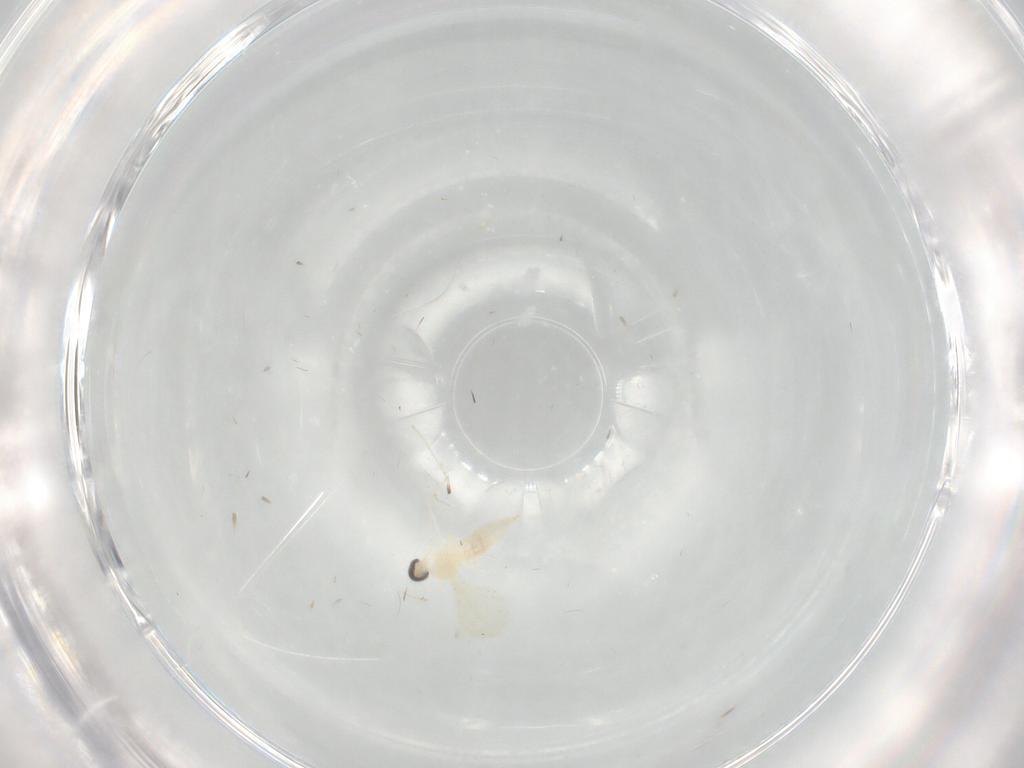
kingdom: Animalia
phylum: Arthropoda
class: Insecta
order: Diptera
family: Cecidomyiidae
